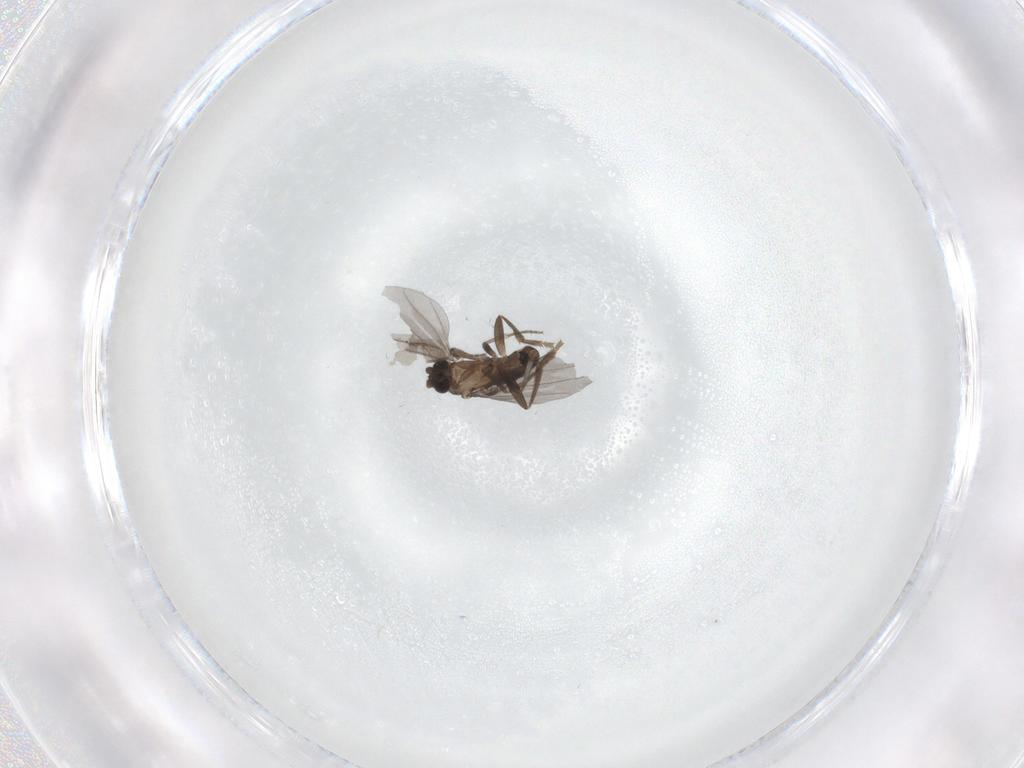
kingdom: Animalia
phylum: Arthropoda
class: Insecta
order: Diptera
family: Phoridae
